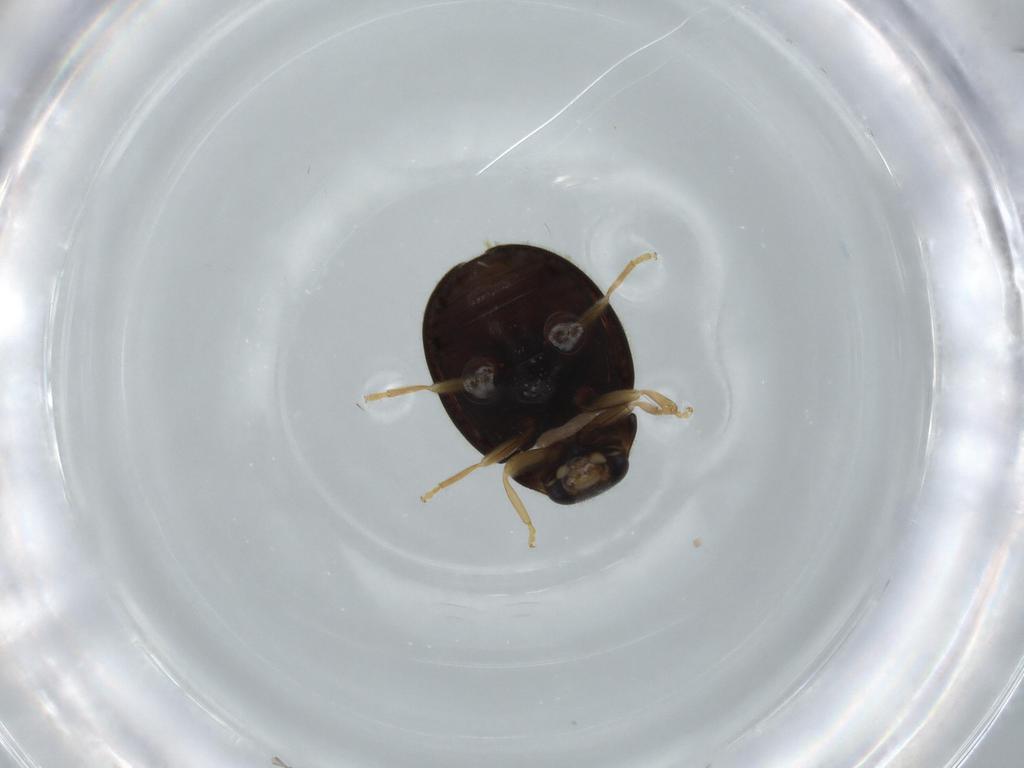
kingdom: Animalia
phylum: Arthropoda
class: Insecta
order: Coleoptera
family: Coccinellidae
